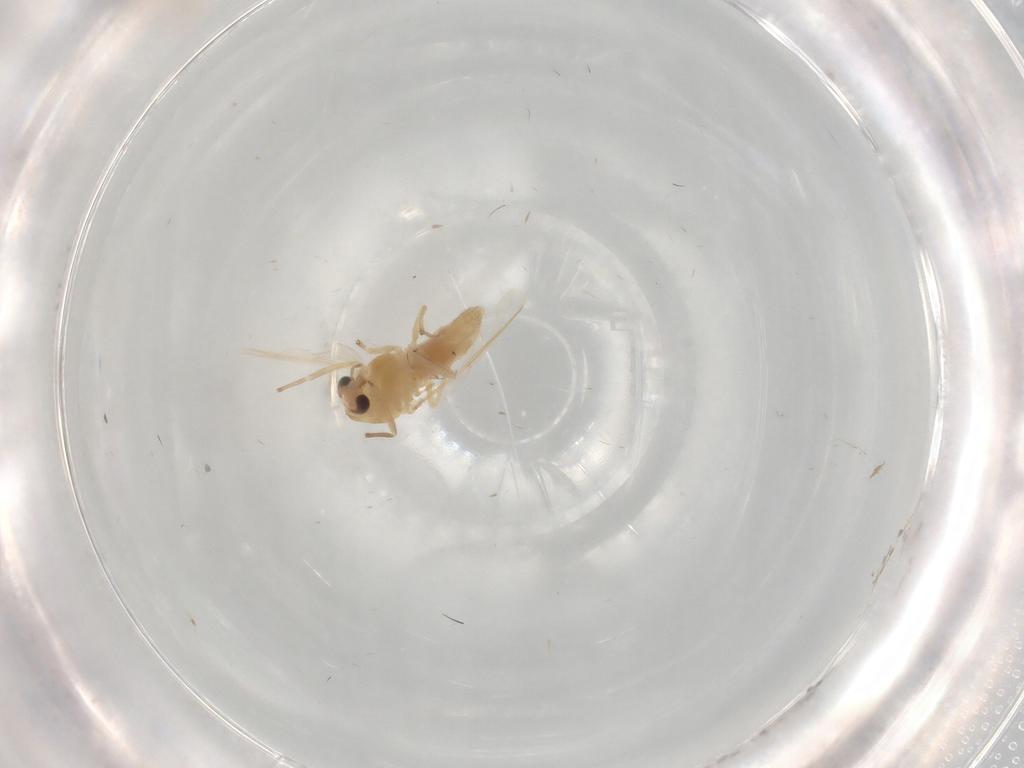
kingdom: Animalia
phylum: Arthropoda
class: Insecta
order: Diptera
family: Chironomidae
